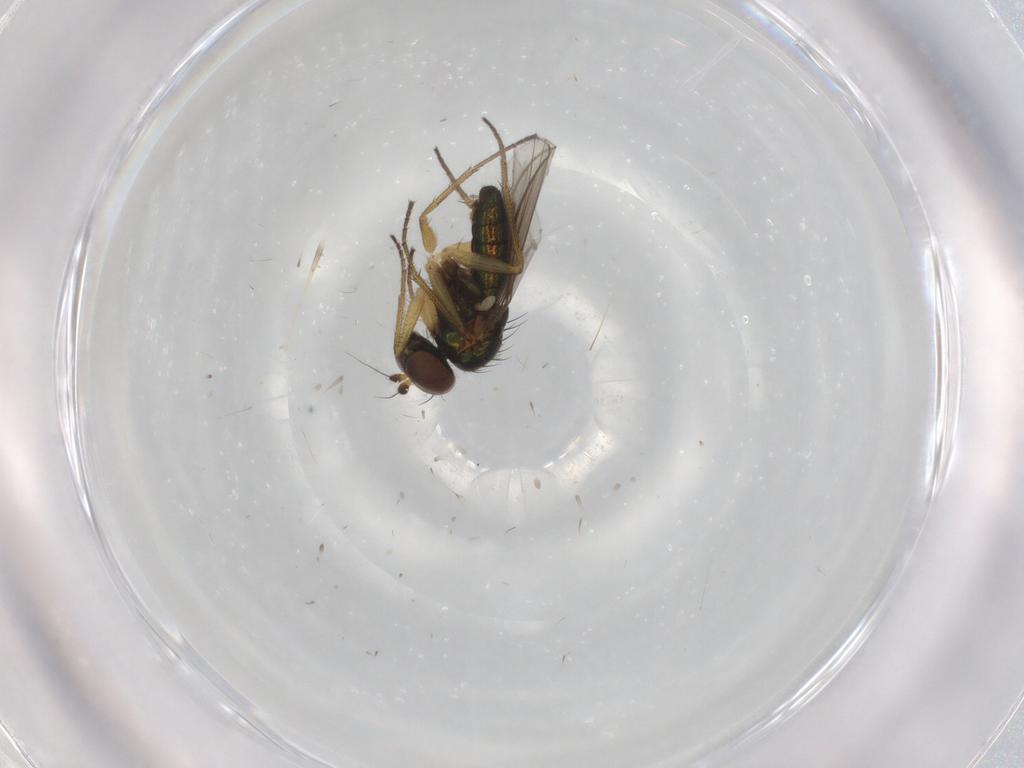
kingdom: Animalia
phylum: Arthropoda
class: Insecta
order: Diptera
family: Dolichopodidae
